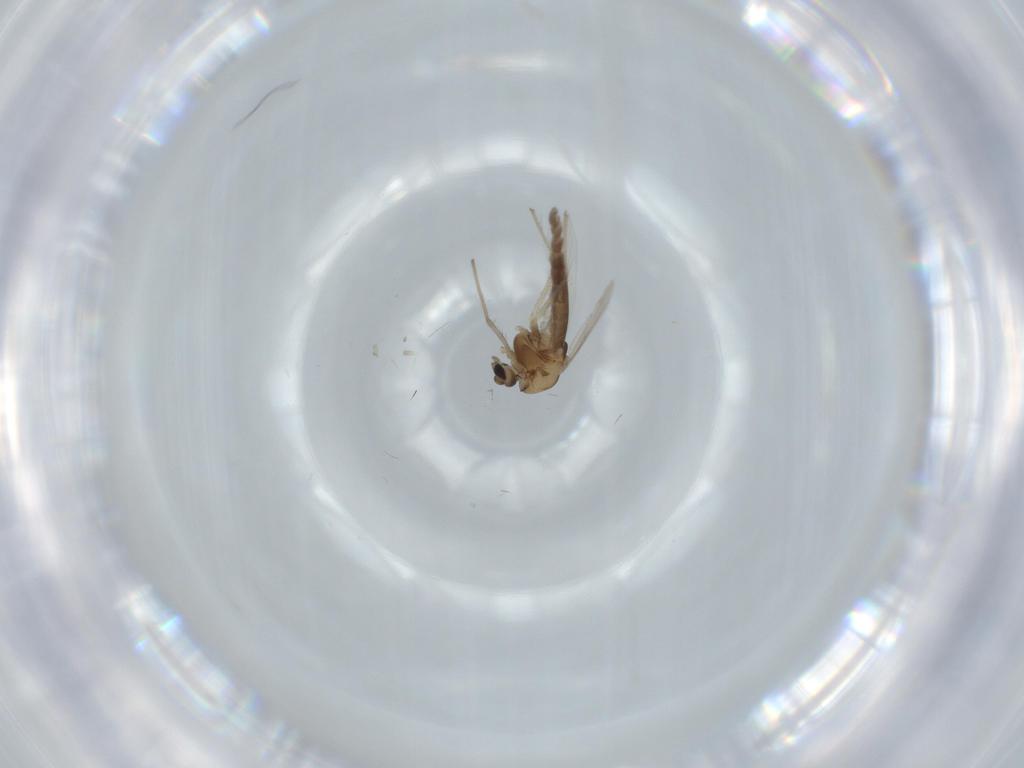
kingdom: Animalia
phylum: Arthropoda
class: Insecta
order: Diptera
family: Chironomidae
